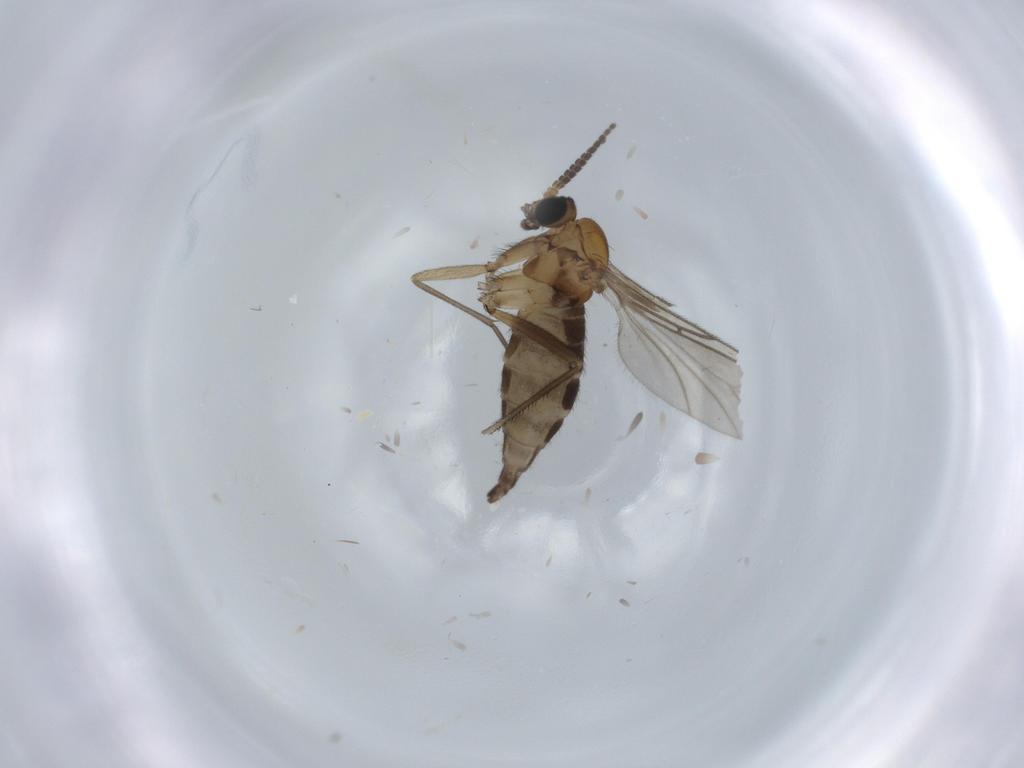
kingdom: Animalia
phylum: Arthropoda
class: Insecta
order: Diptera
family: Sciaridae
